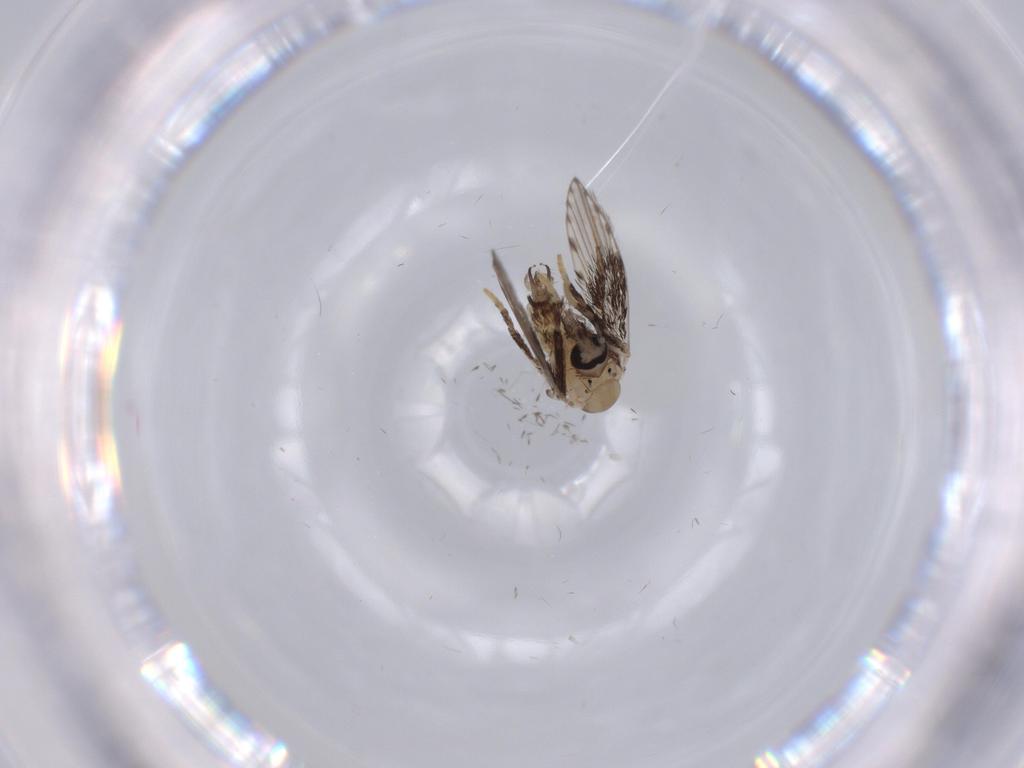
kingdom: Animalia
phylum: Arthropoda
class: Insecta
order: Diptera
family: Psychodidae
